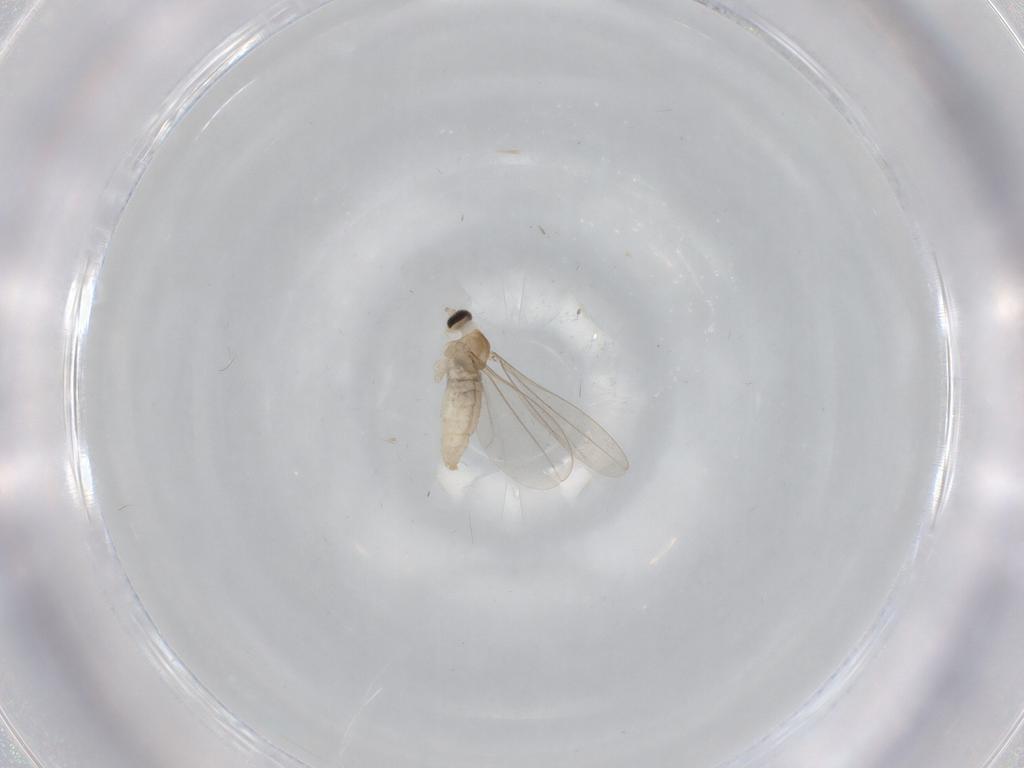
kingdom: Animalia
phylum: Arthropoda
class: Insecta
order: Diptera
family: Cecidomyiidae
